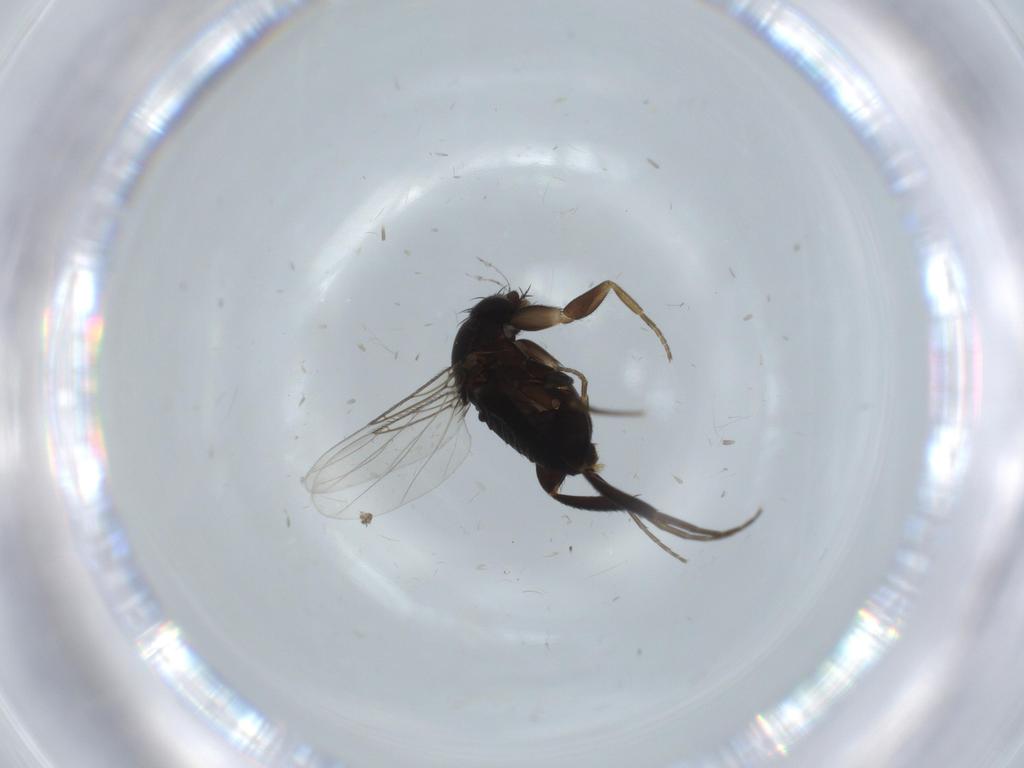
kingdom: Animalia
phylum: Arthropoda
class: Insecta
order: Diptera
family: Phoridae
